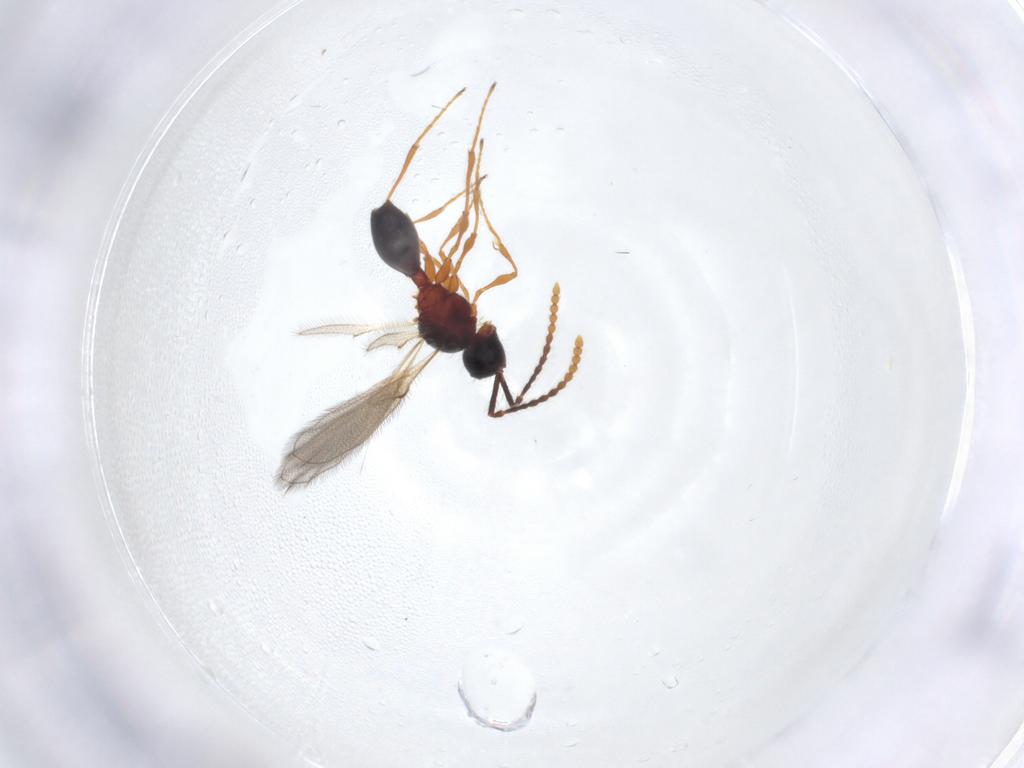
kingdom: Animalia
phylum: Arthropoda
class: Insecta
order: Hymenoptera
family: Diapriidae
